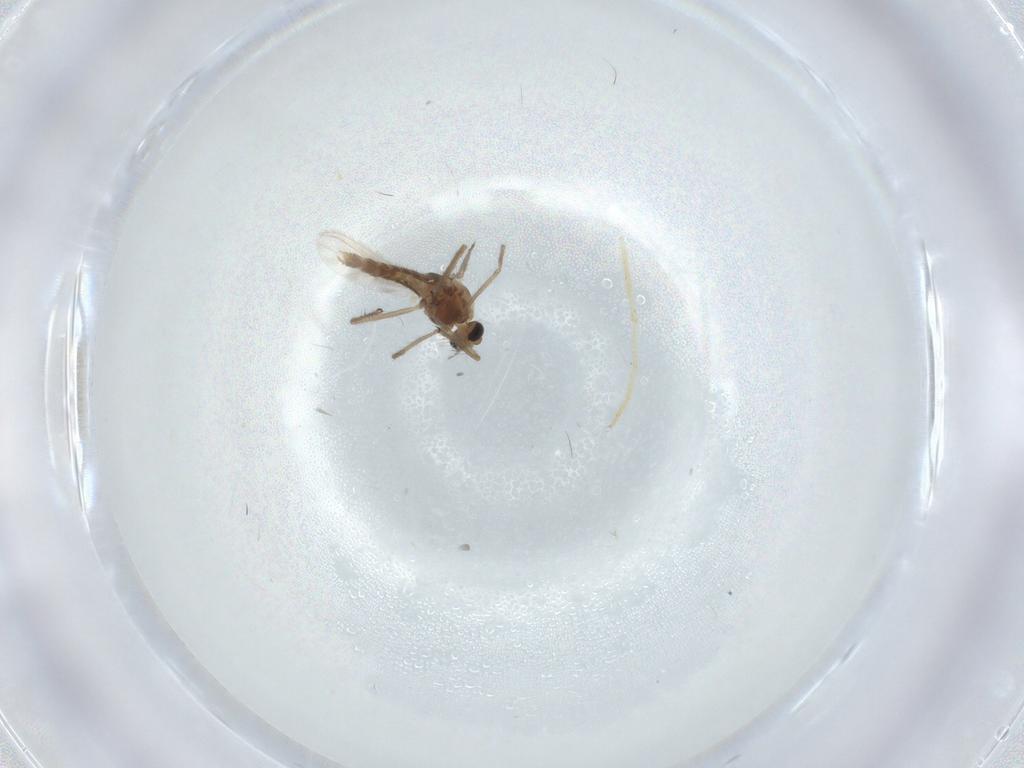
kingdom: Animalia
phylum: Arthropoda
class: Insecta
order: Diptera
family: Chironomidae
